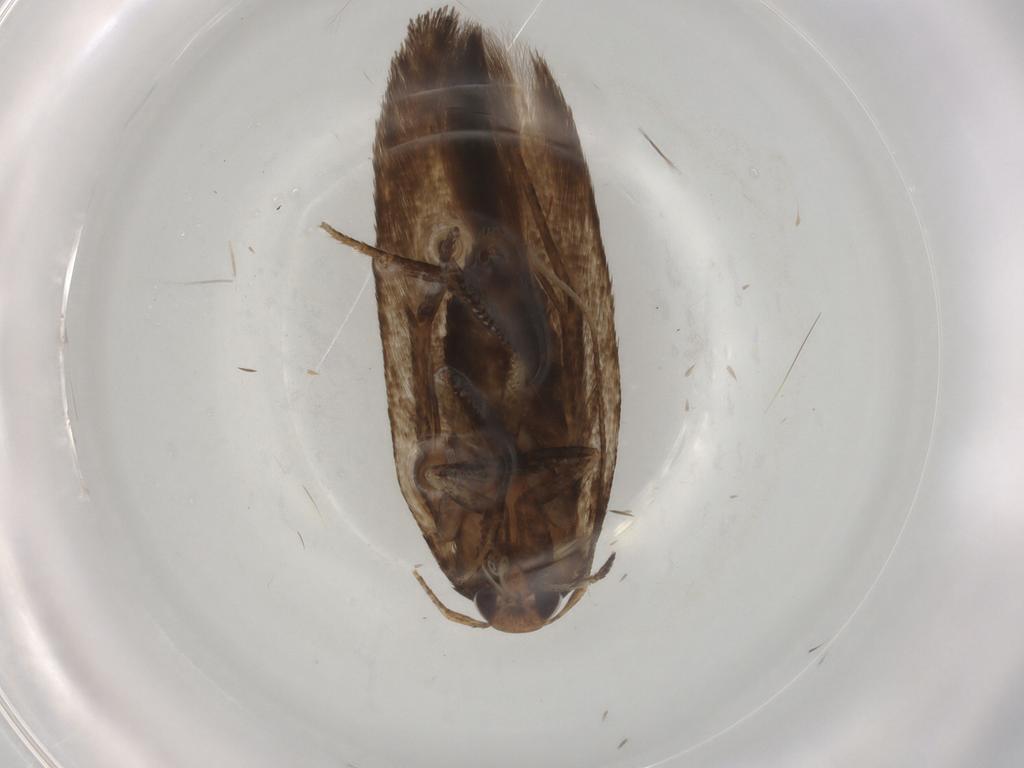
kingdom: Animalia
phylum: Arthropoda
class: Insecta
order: Lepidoptera
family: Cosmopterigidae
